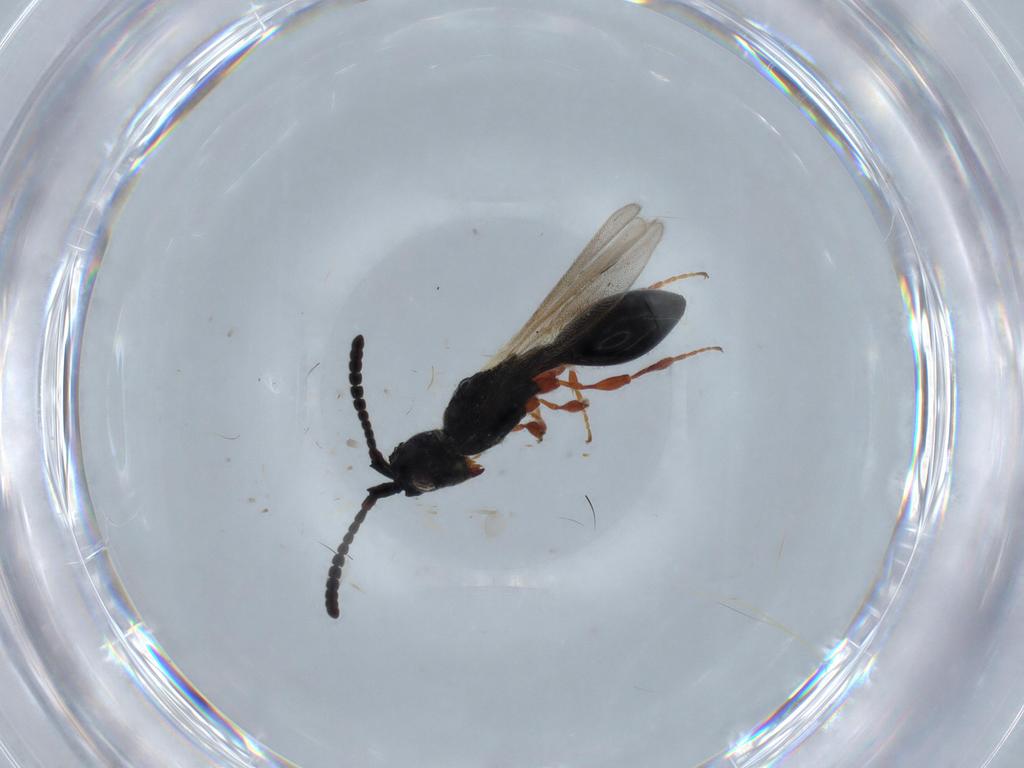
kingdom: Animalia
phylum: Arthropoda
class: Insecta
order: Hymenoptera
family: Diapriidae
